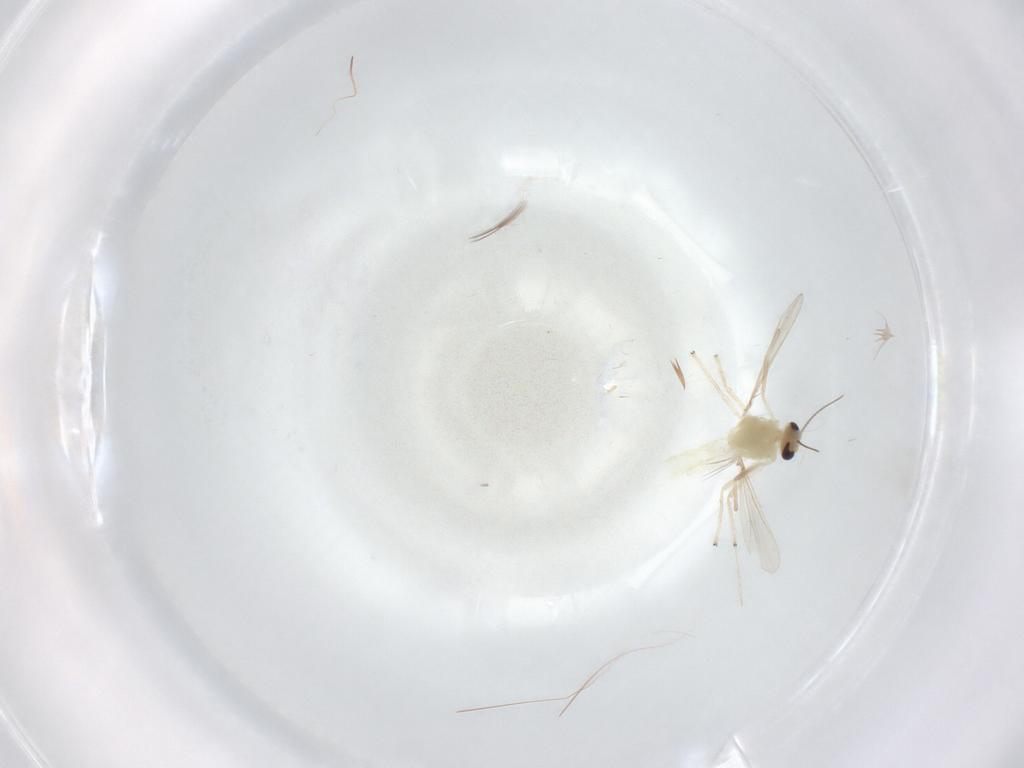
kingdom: Animalia
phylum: Arthropoda
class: Insecta
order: Diptera
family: Chironomidae
